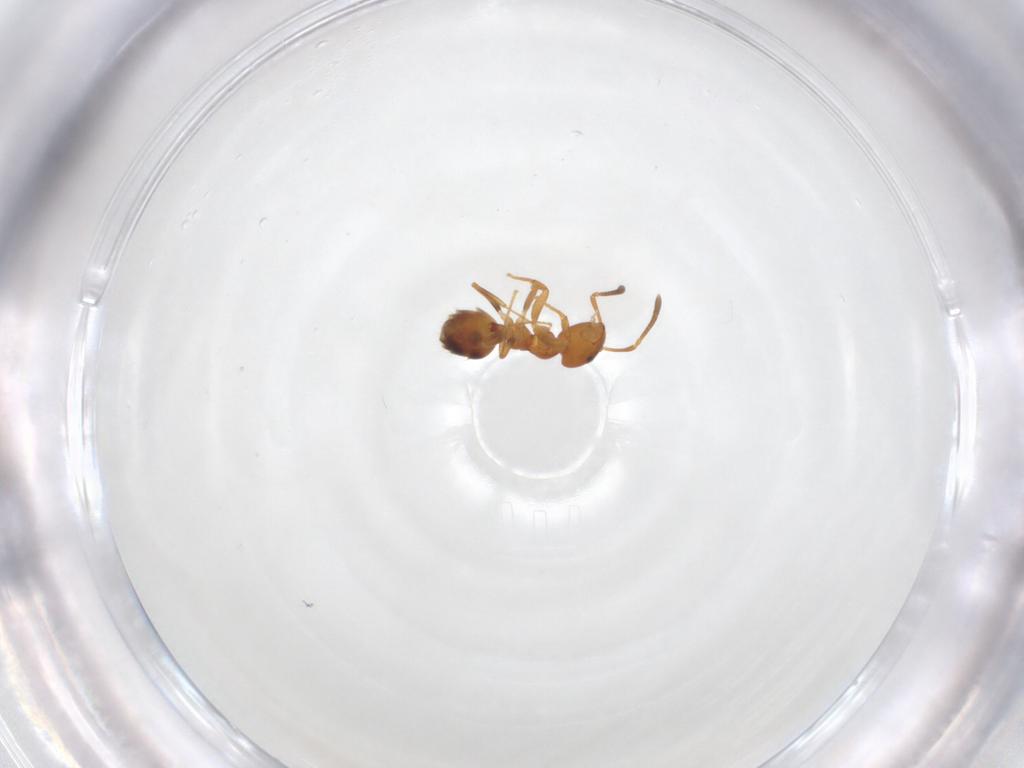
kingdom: Animalia
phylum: Arthropoda
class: Insecta
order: Hymenoptera
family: Formicidae
